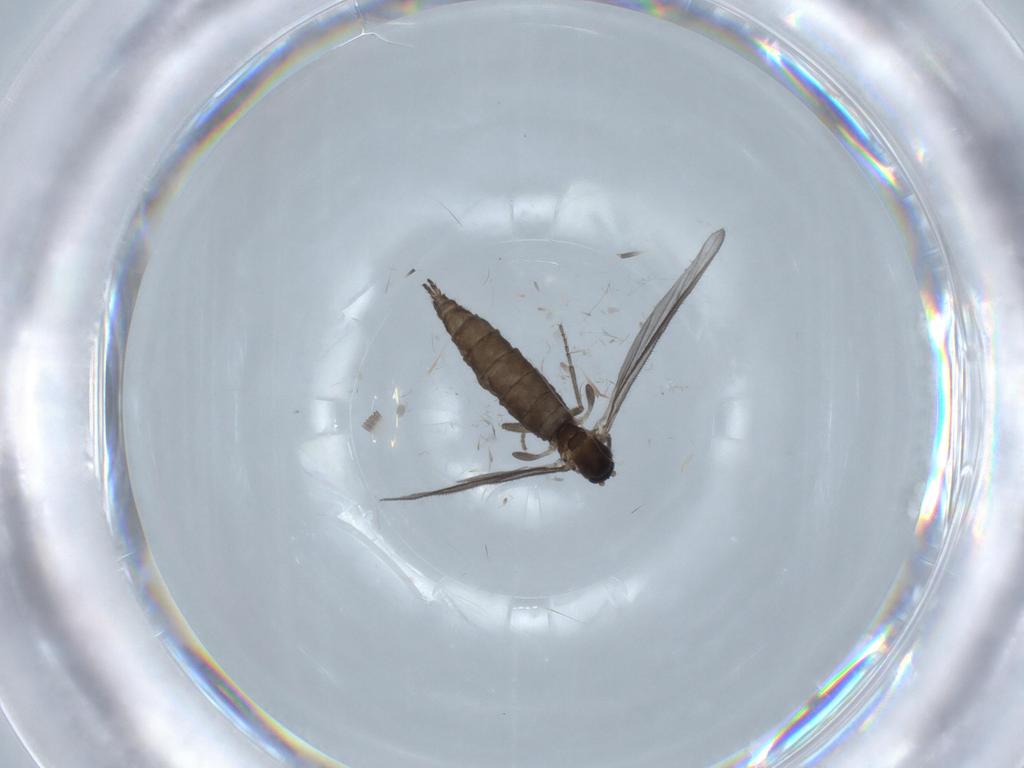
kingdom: Animalia
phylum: Arthropoda
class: Insecta
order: Diptera
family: Sciaridae
